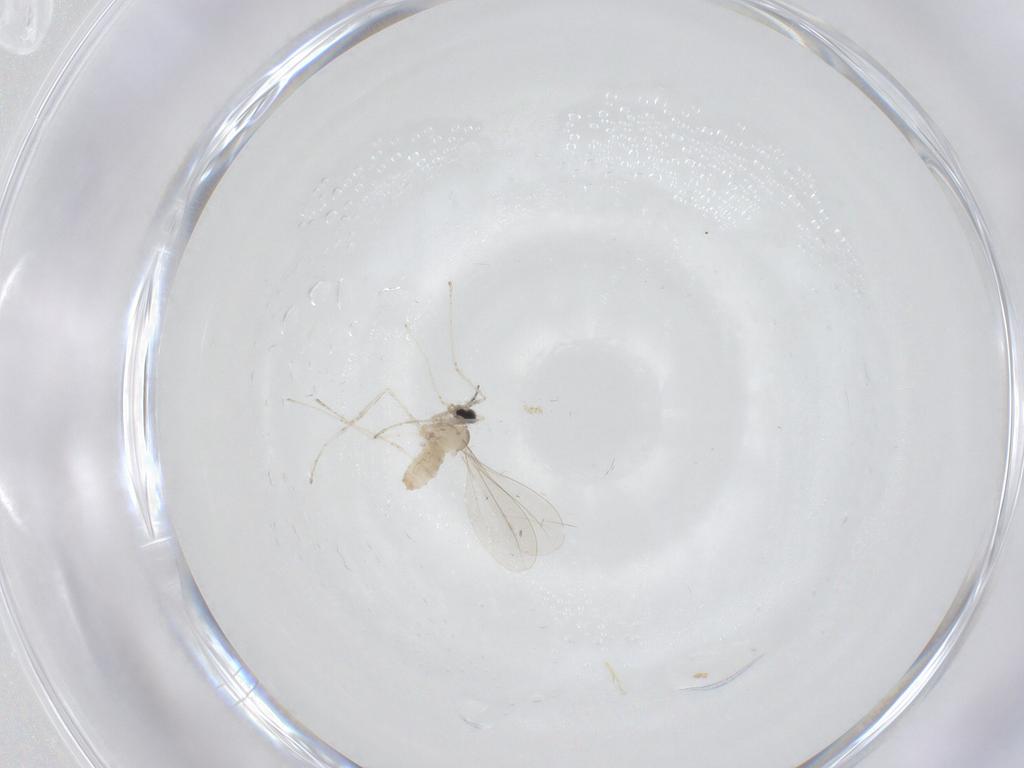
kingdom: Animalia
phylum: Arthropoda
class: Insecta
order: Diptera
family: Cecidomyiidae
